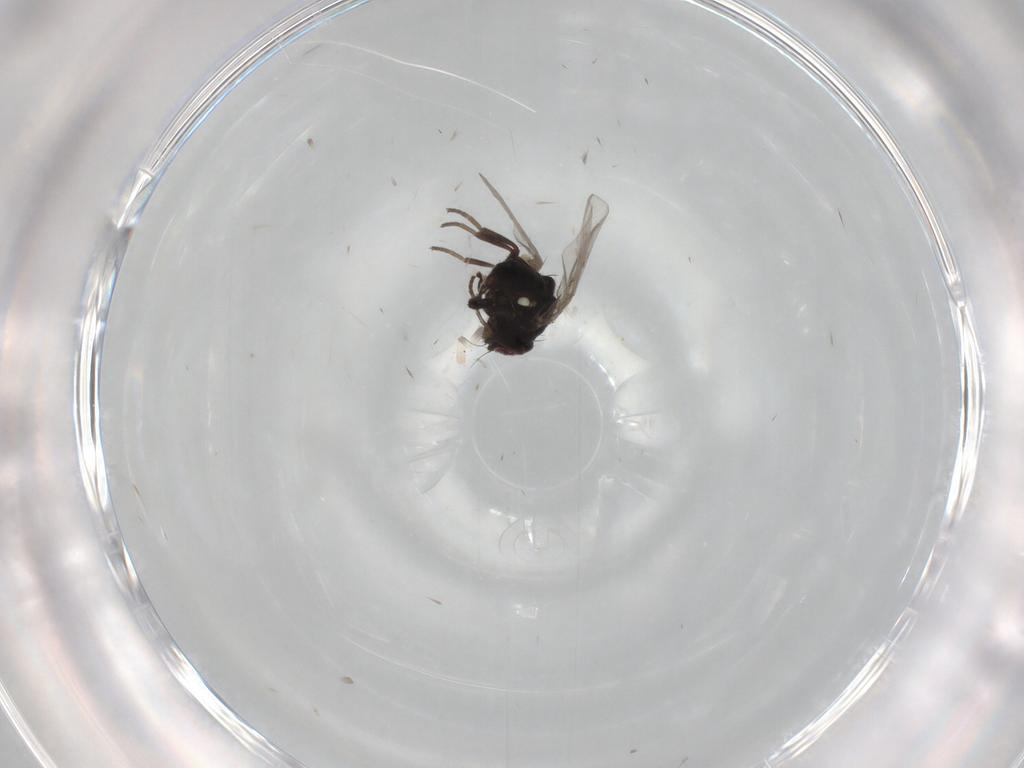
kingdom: Animalia
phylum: Arthropoda
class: Insecta
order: Diptera
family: Agromyzidae
